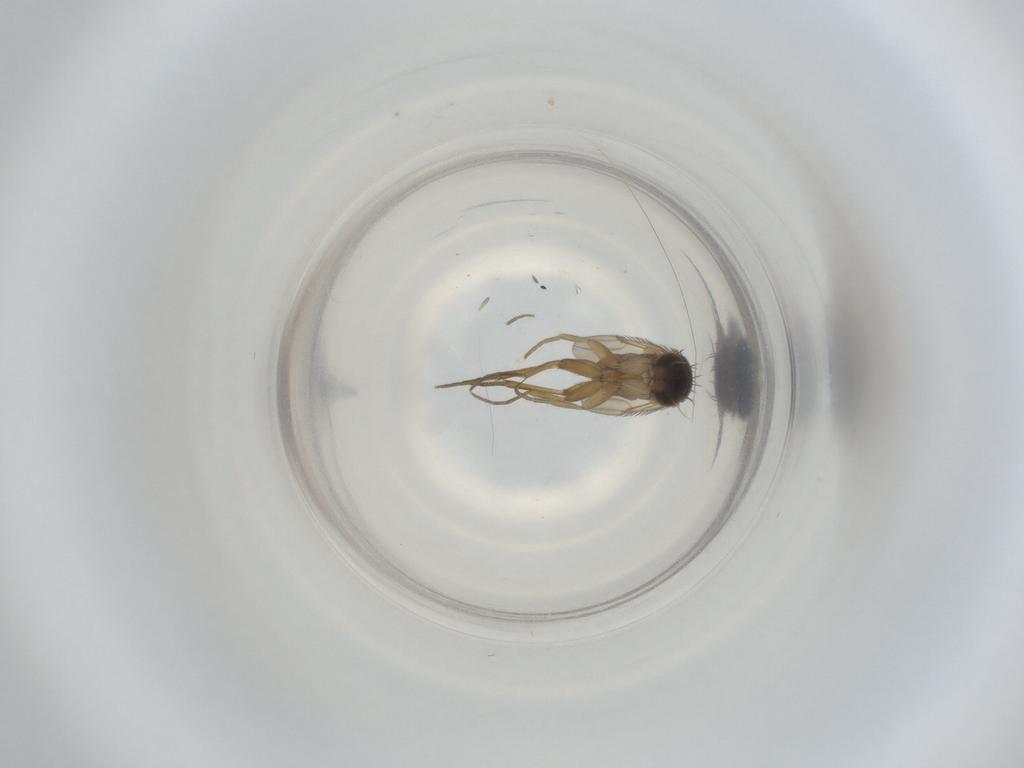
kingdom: Animalia
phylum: Arthropoda
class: Insecta
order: Diptera
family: Phoridae
